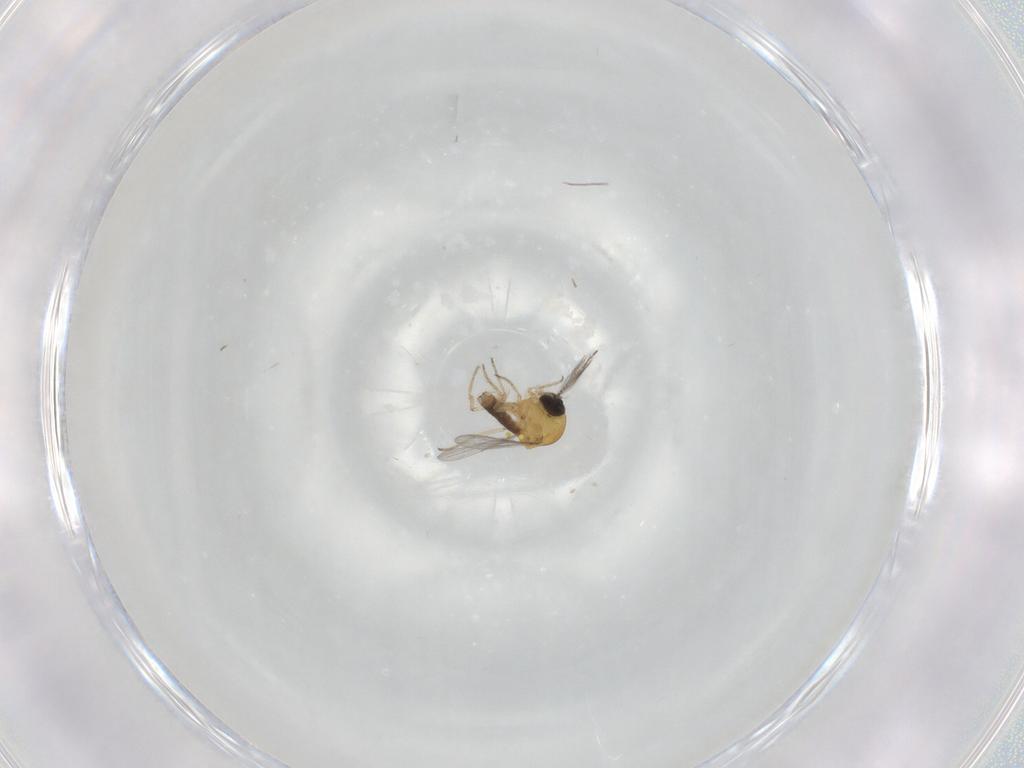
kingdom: Animalia
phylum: Arthropoda
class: Insecta
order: Diptera
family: Ceratopogonidae
